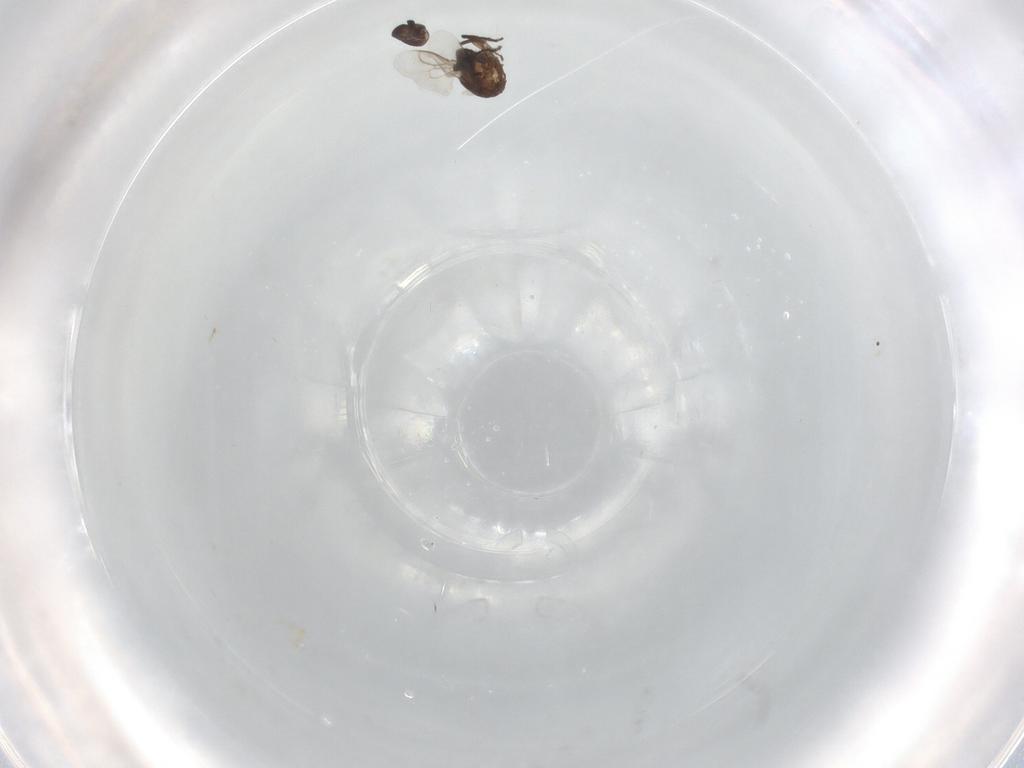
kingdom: Animalia
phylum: Arthropoda
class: Insecta
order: Diptera
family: Sphaeroceridae
